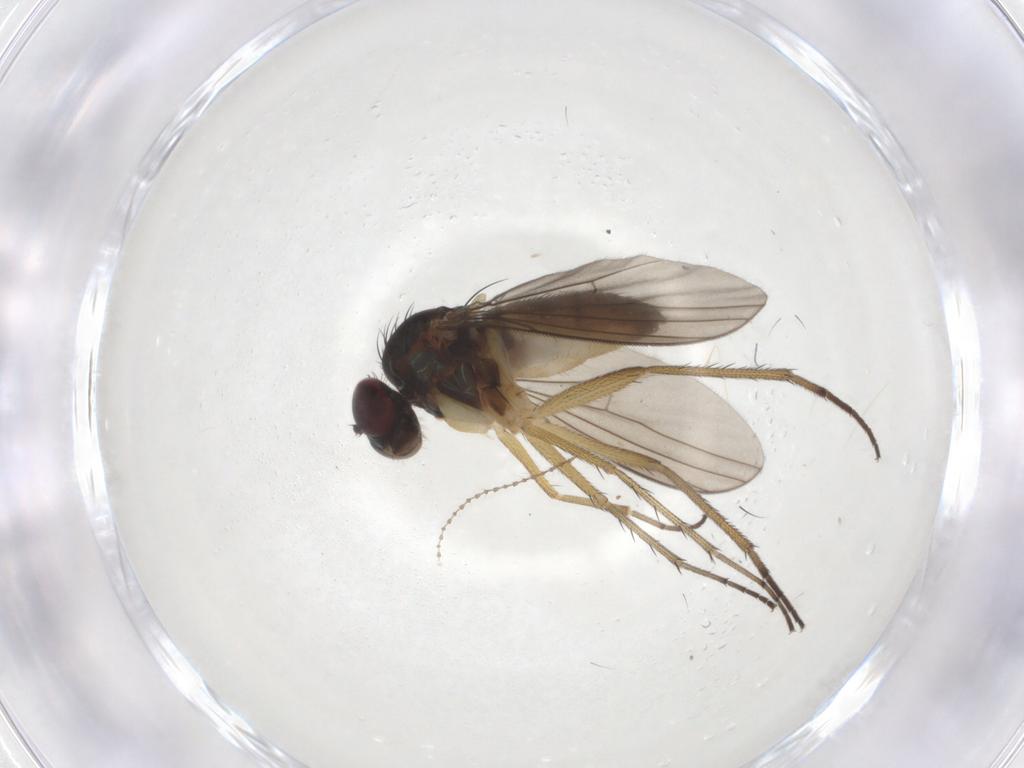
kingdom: Animalia
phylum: Arthropoda
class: Insecta
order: Diptera
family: Dolichopodidae
